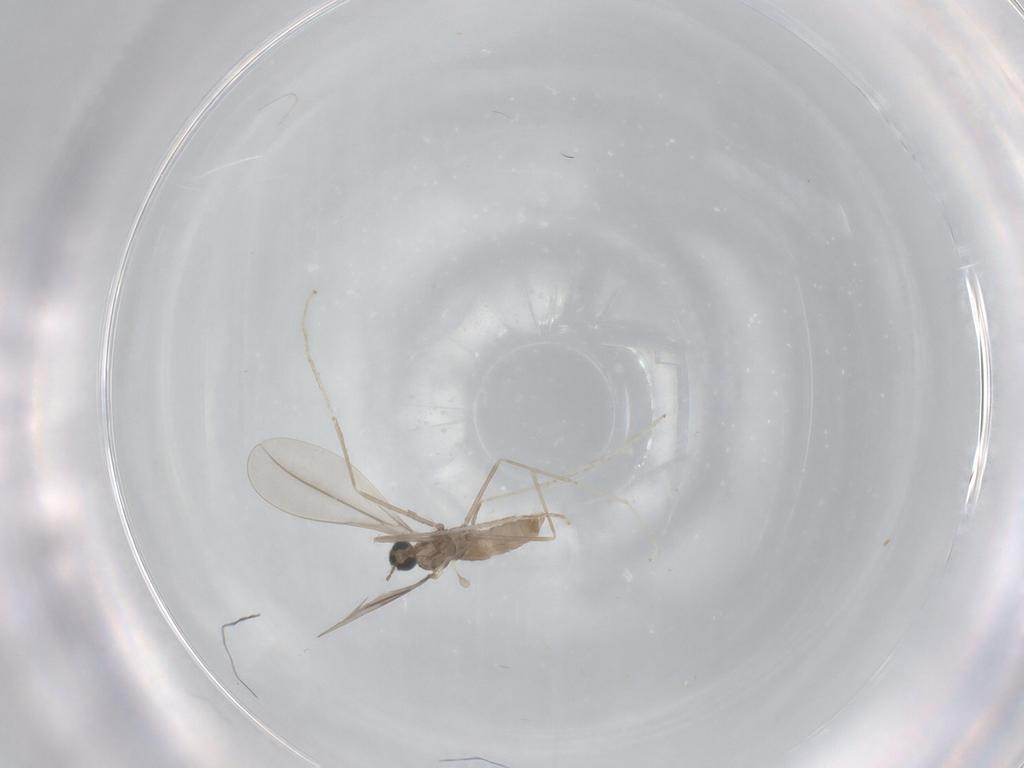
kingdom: Animalia
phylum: Arthropoda
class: Insecta
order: Diptera
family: Cecidomyiidae
